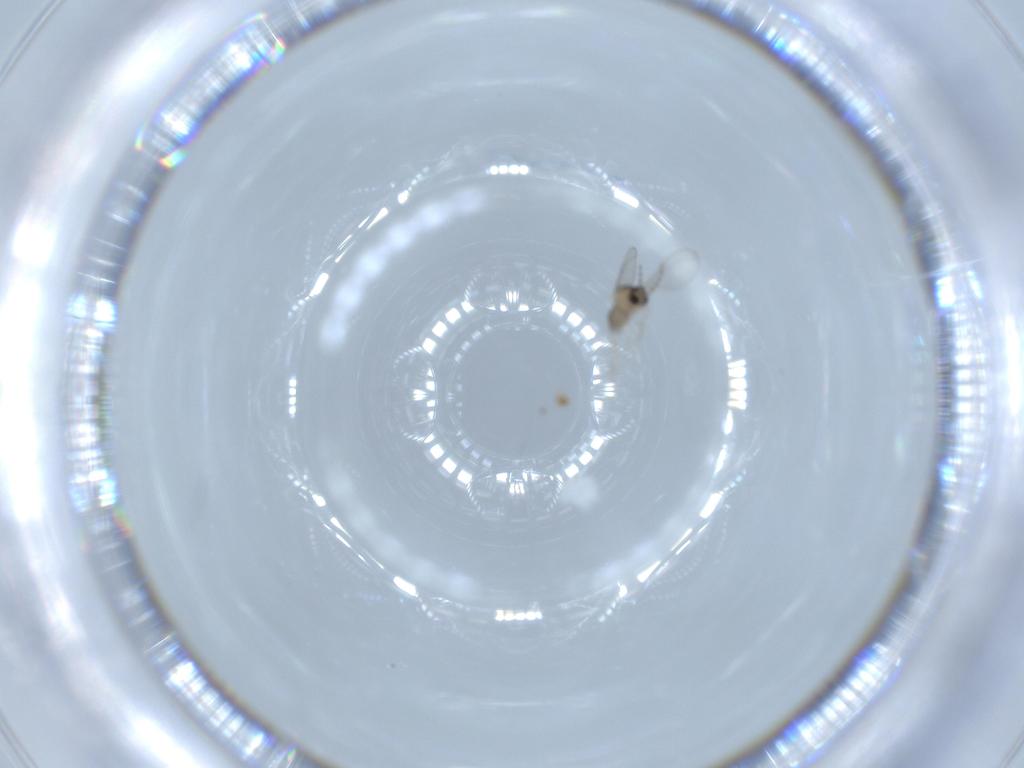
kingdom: Animalia
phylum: Arthropoda
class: Insecta
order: Diptera
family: Cecidomyiidae
